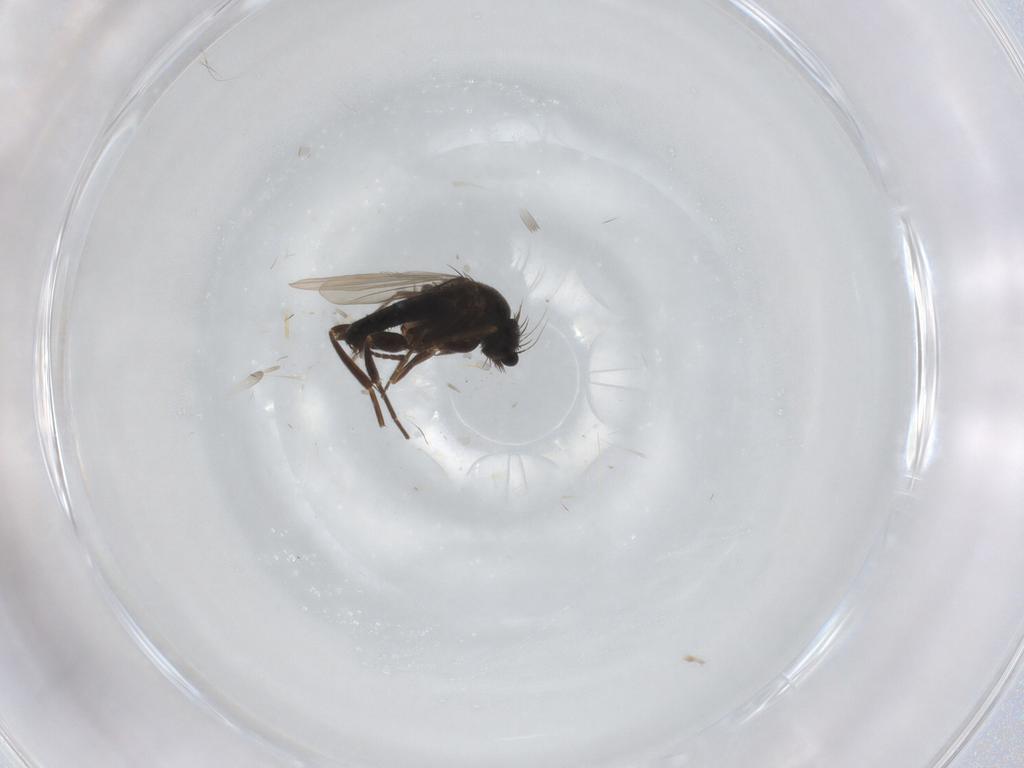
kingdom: Animalia
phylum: Arthropoda
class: Insecta
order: Diptera
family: Phoridae
